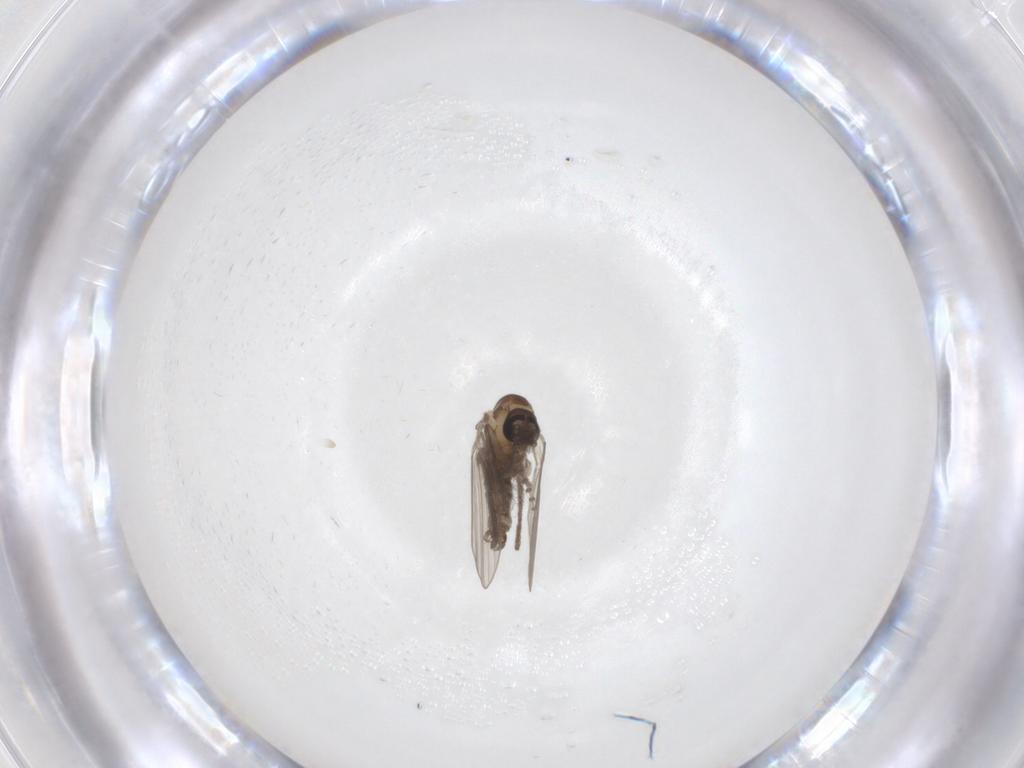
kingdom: Animalia
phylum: Arthropoda
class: Insecta
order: Diptera
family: Psychodidae
